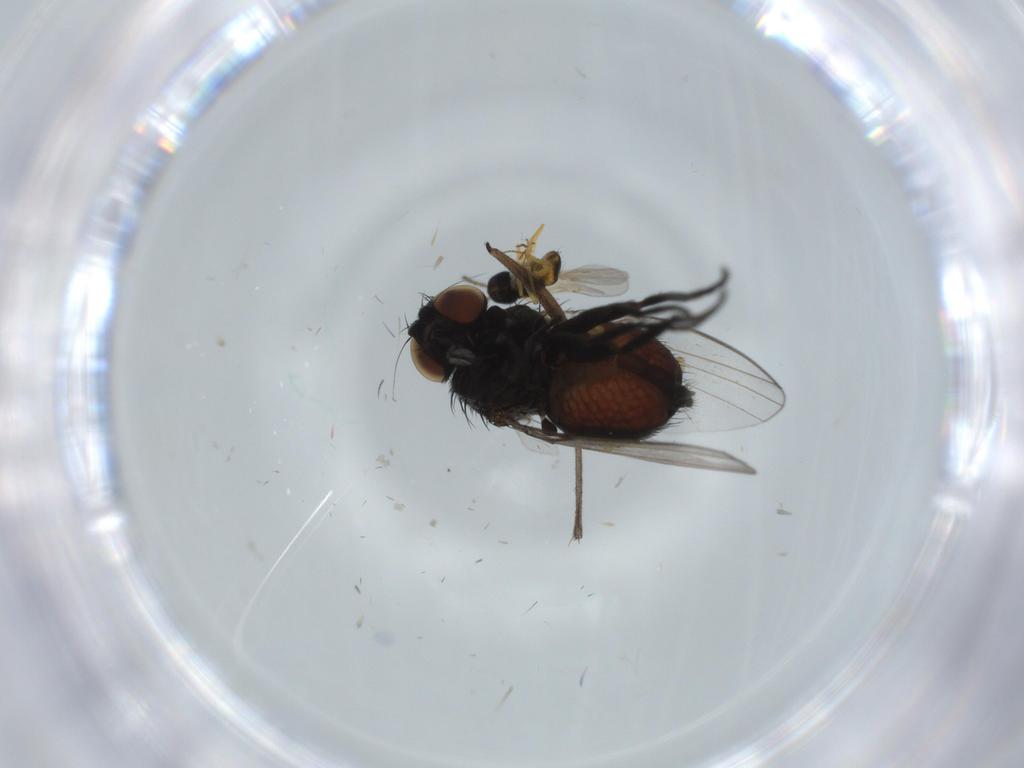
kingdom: Animalia
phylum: Arthropoda
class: Insecta
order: Diptera
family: Milichiidae
